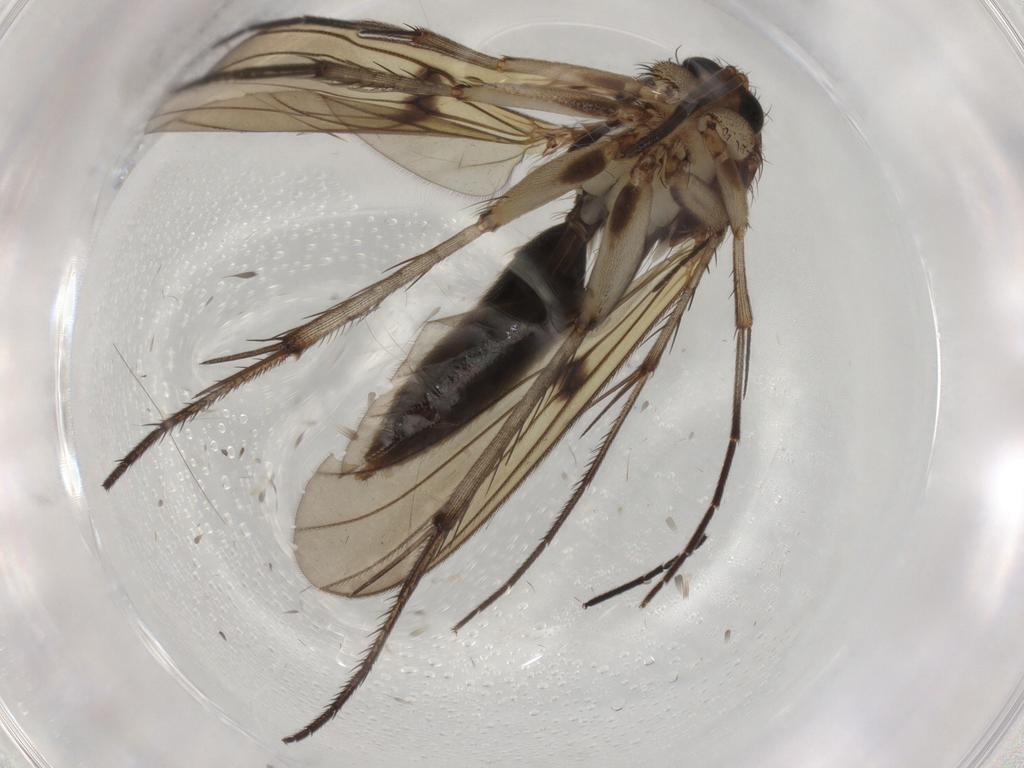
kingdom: Animalia
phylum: Arthropoda
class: Insecta
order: Diptera
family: Mycetophilidae
